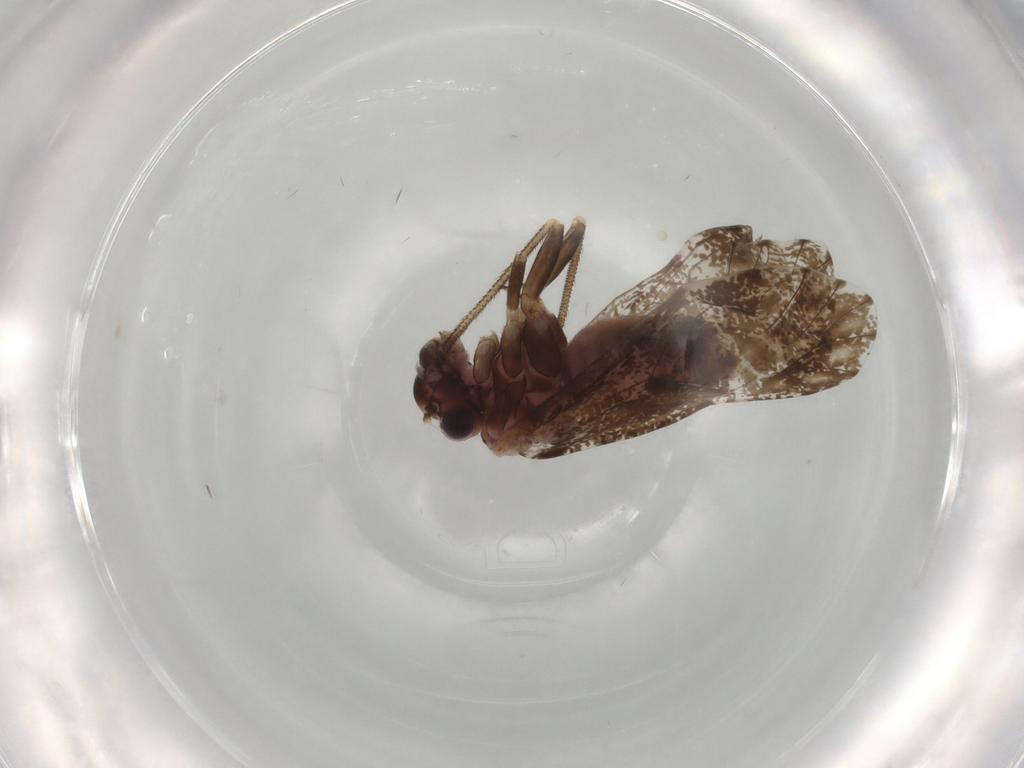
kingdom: Animalia
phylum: Arthropoda
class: Insecta
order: Psocodea
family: Psocidae
